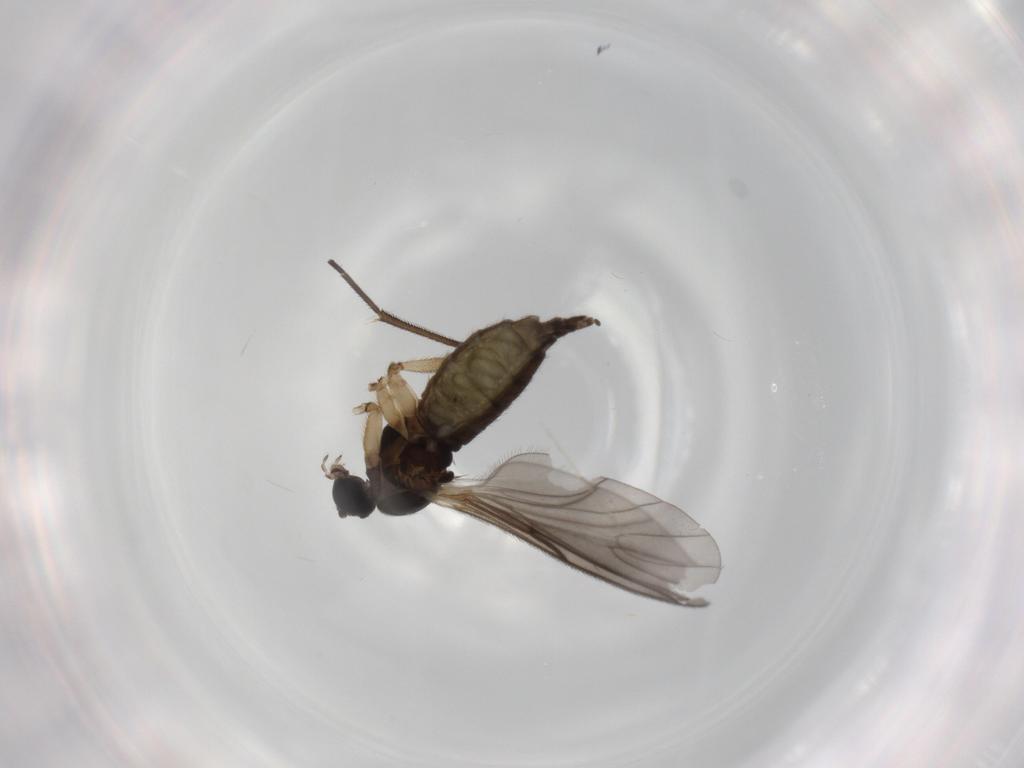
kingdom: Animalia
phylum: Arthropoda
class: Insecta
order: Diptera
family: Sciaridae
